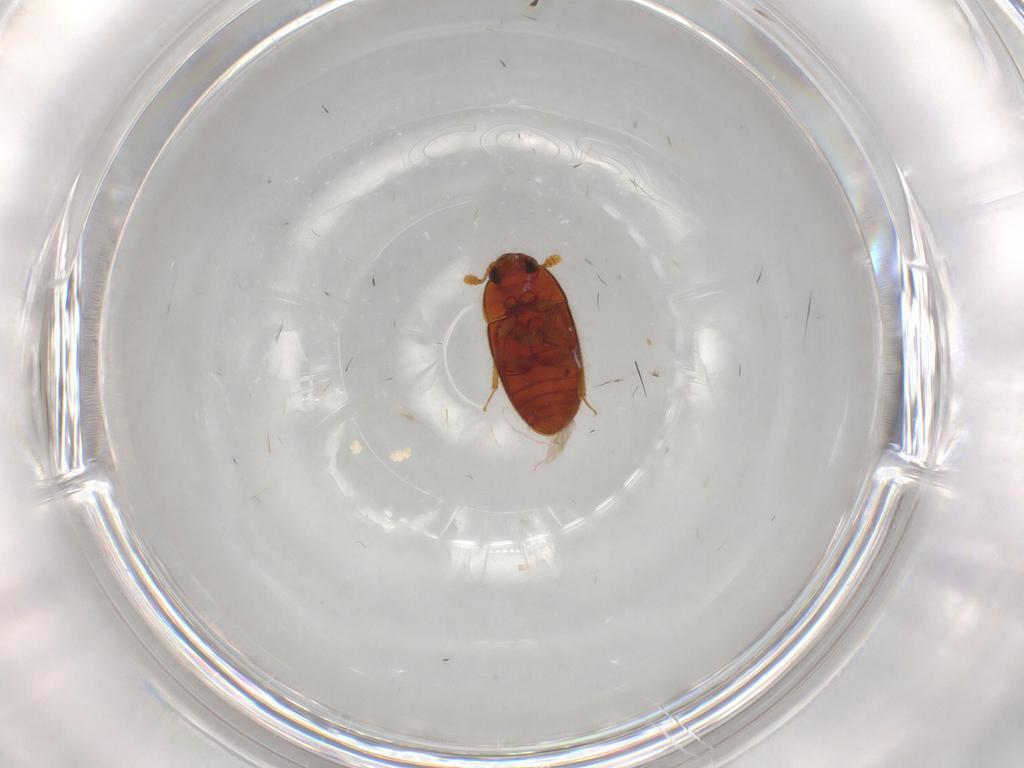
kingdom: Animalia
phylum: Arthropoda
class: Insecta
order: Coleoptera
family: Biphyllidae
